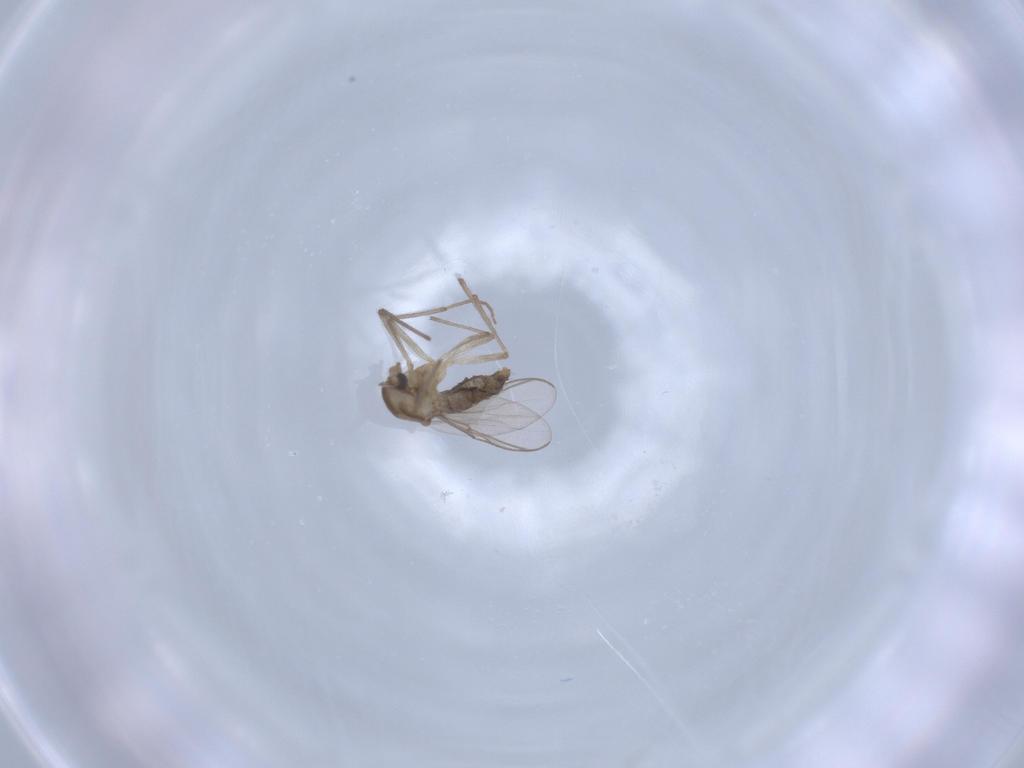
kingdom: Animalia
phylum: Arthropoda
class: Insecta
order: Diptera
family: Chironomidae
